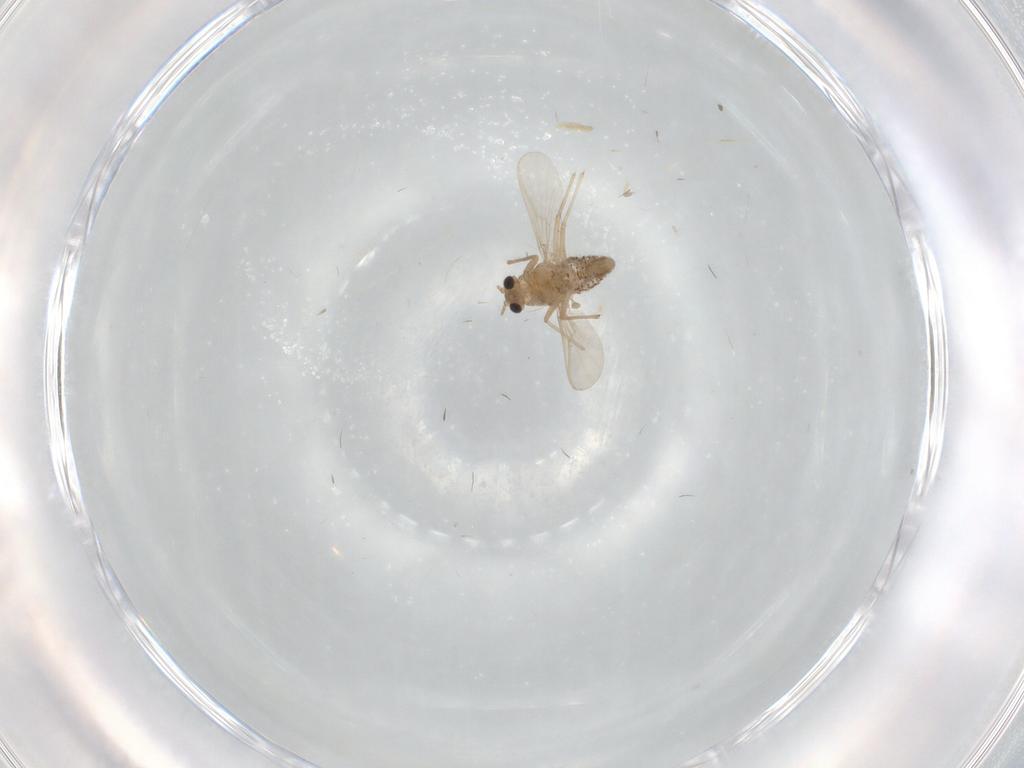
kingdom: Animalia
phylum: Arthropoda
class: Insecta
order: Diptera
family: Chironomidae
